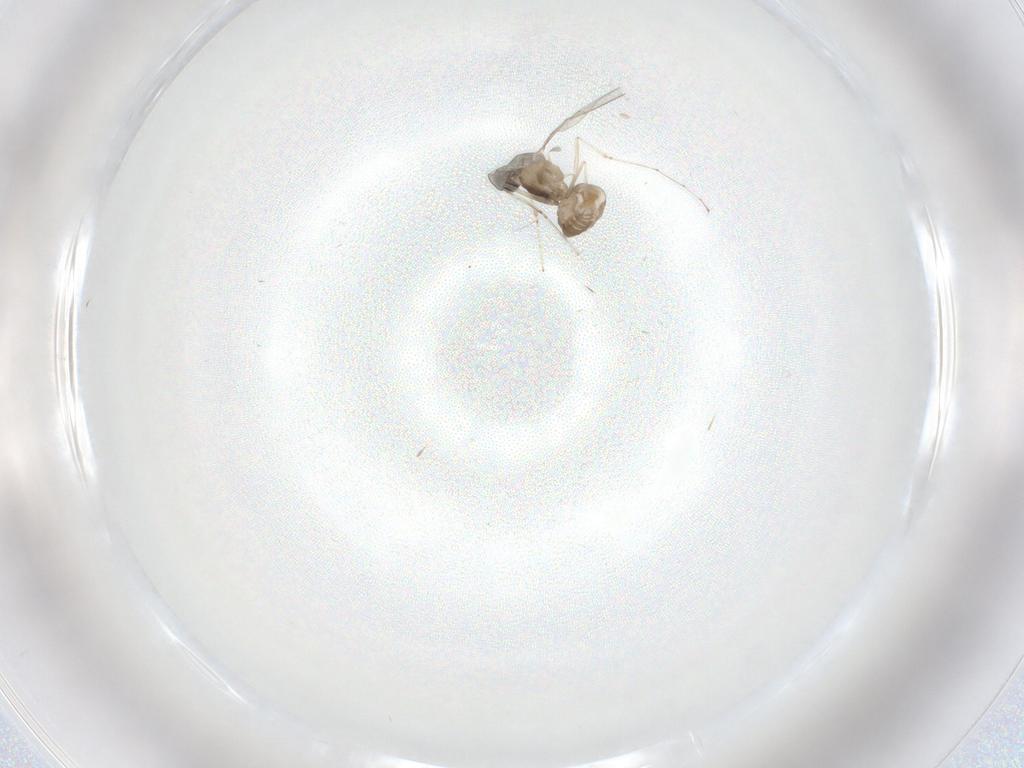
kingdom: Animalia
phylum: Arthropoda
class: Insecta
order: Diptera
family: Cecidomyiidae
